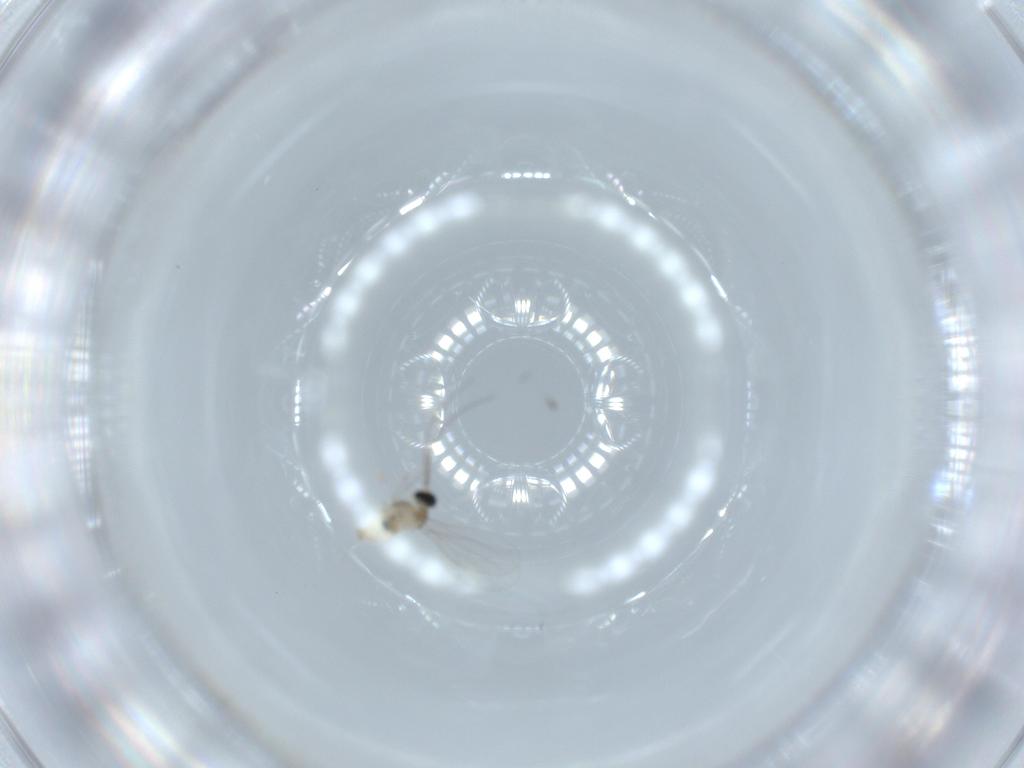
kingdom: Animalia
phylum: Arthropoda
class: Insecta
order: Diptera
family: Cecidomyiidae
